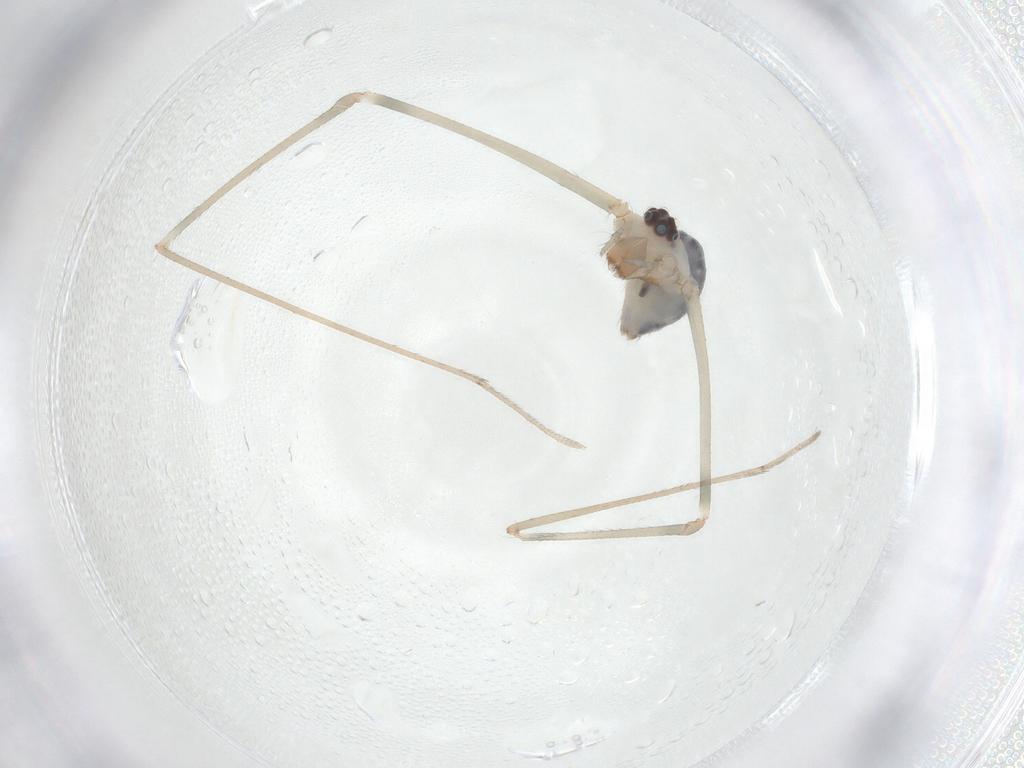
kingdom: Animalia
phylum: Arthropoda
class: Arachnida
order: Araneae
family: Pholcidae
